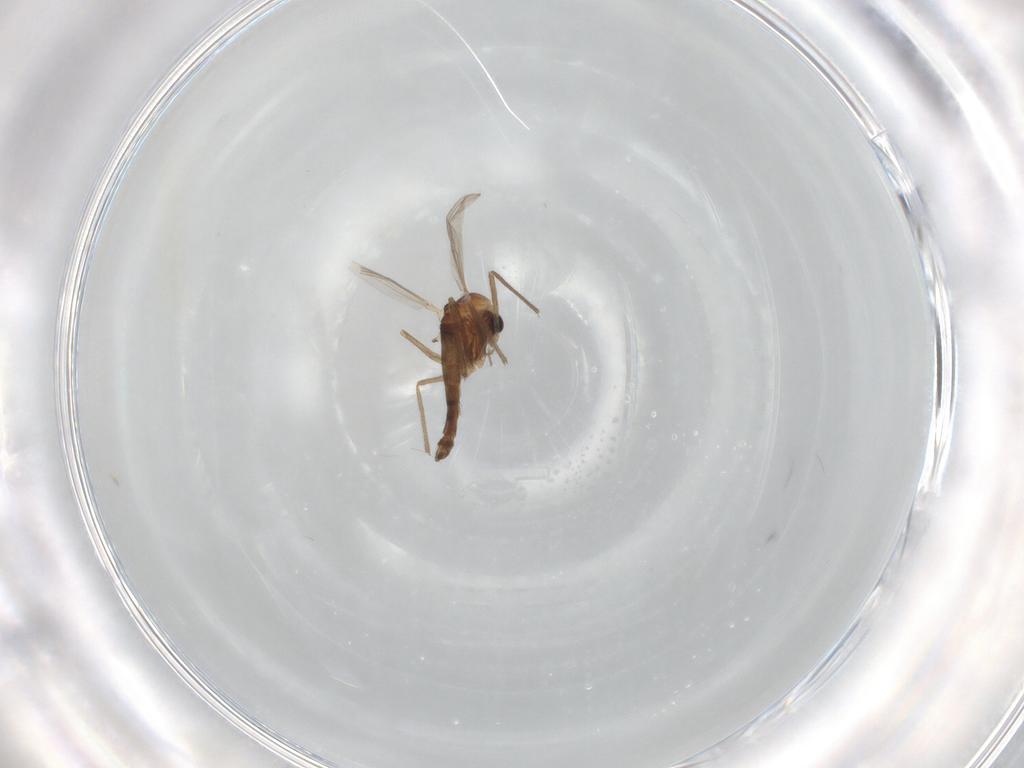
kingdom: Animalia
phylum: Arthropoda
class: Insecta
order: Diptera
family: Chironomidae
